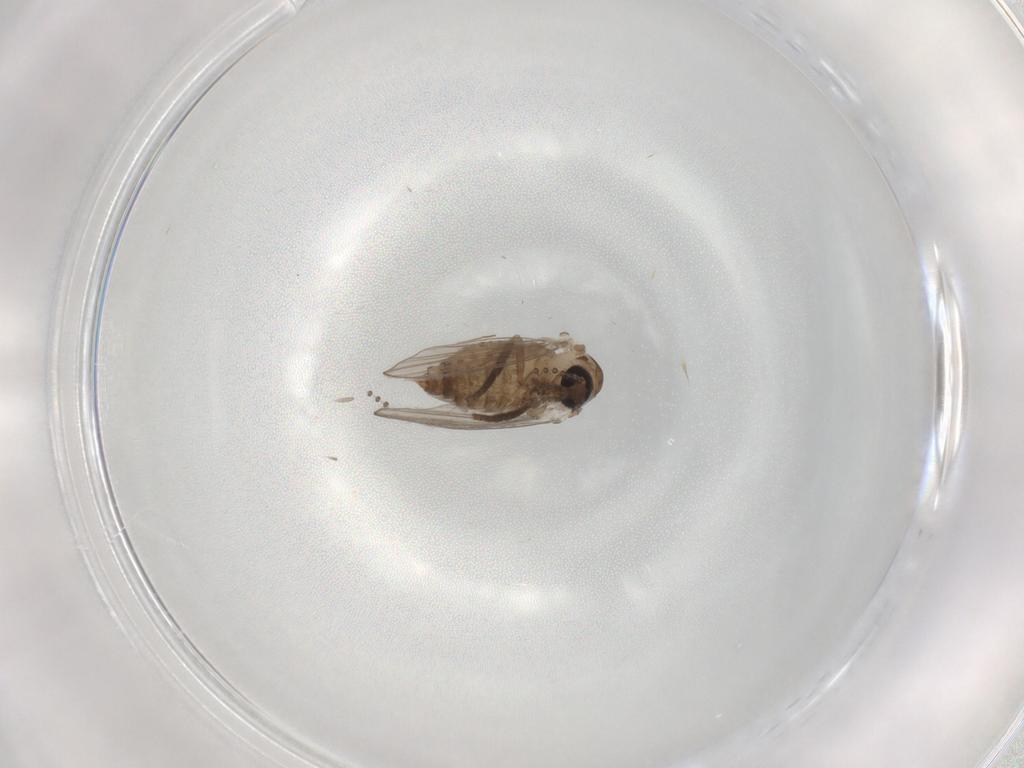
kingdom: Animalia
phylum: Arthropoda
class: Insecta
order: Diptera
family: Psychodidae
